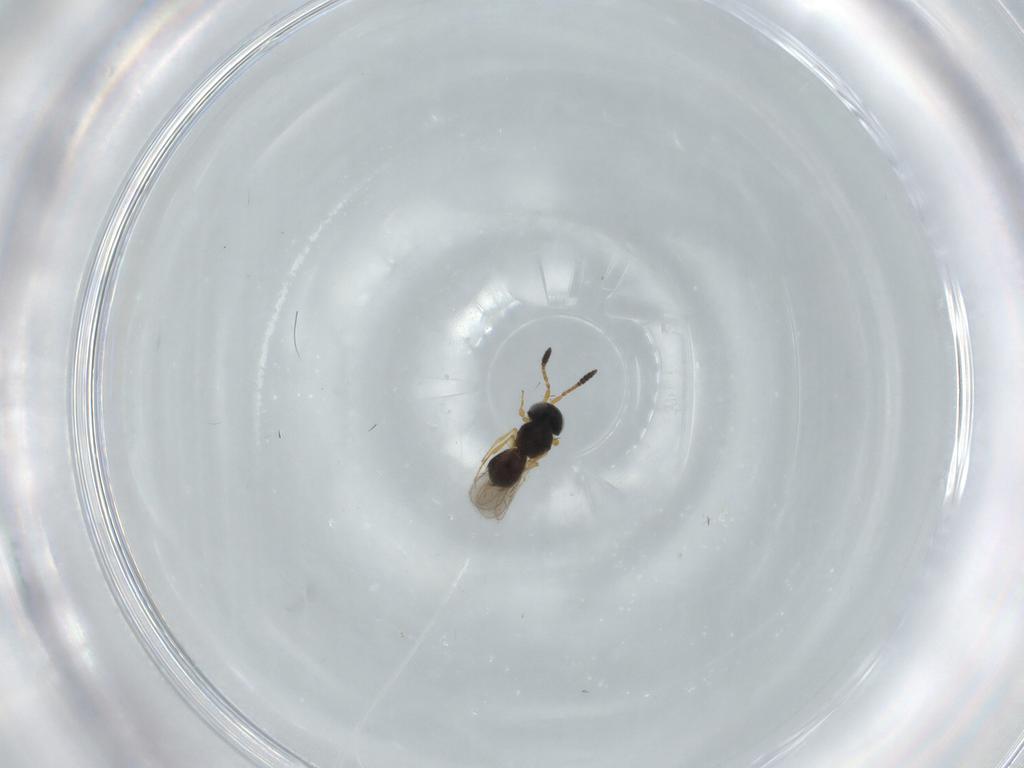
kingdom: Animalia
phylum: Arthropoda
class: Insecta
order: Hymenoptera
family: Scelionidae
